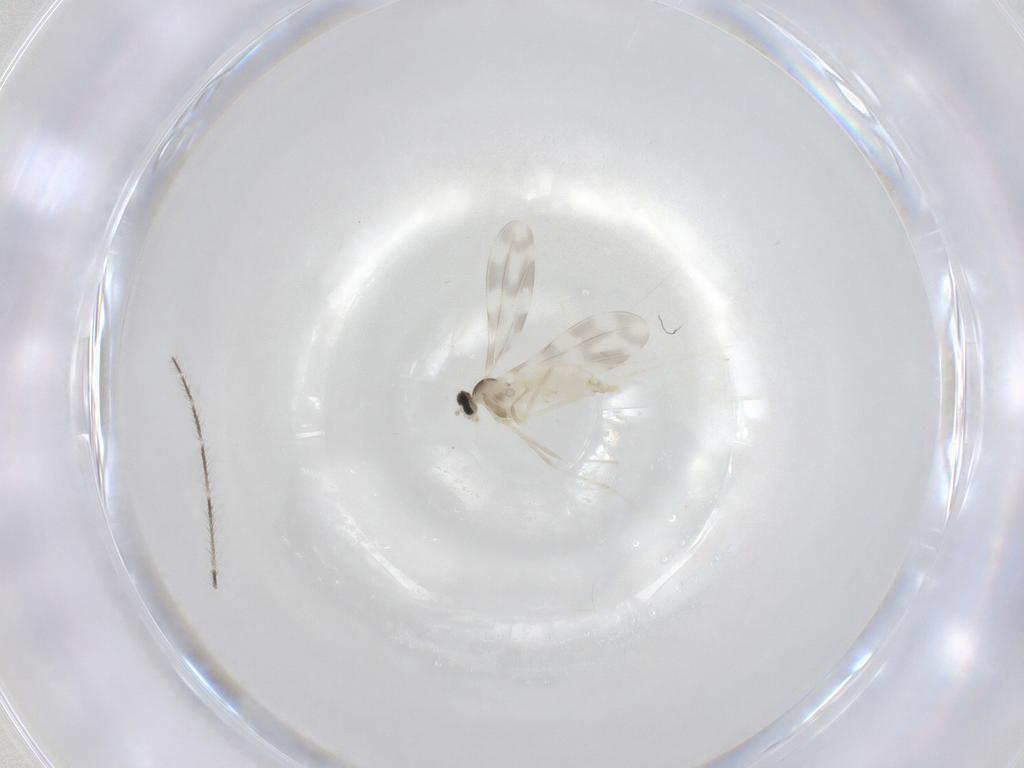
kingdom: Animalia
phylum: Arthropoda
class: Insecta
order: Diptera
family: Cecidomyiidae
